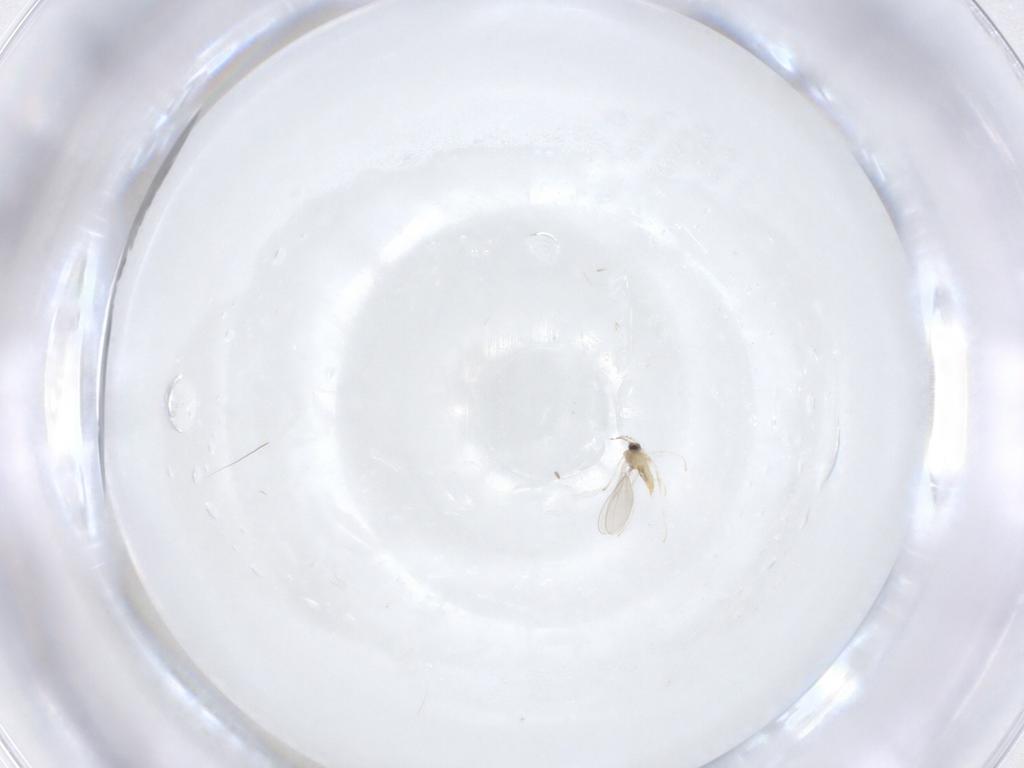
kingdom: Animalia
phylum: Arthropoda
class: Insecta
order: Diptera
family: Cecidomyiidae
